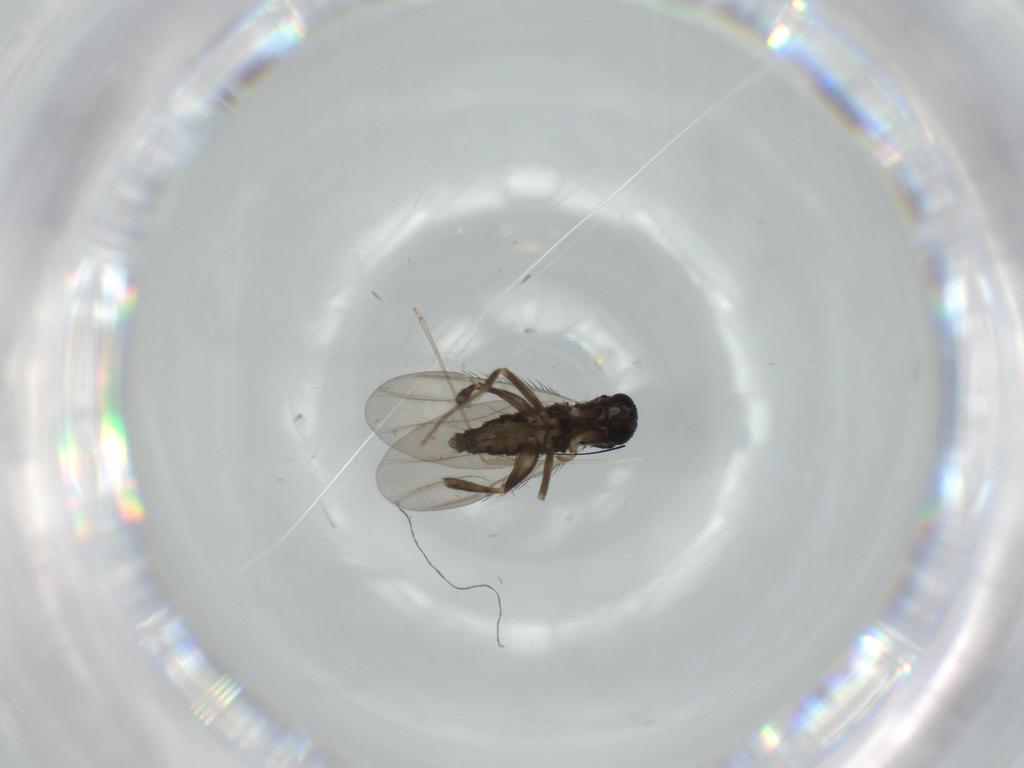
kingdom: Animalia
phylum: Arthropoda
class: Insecta
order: Diptera
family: Phoridae
